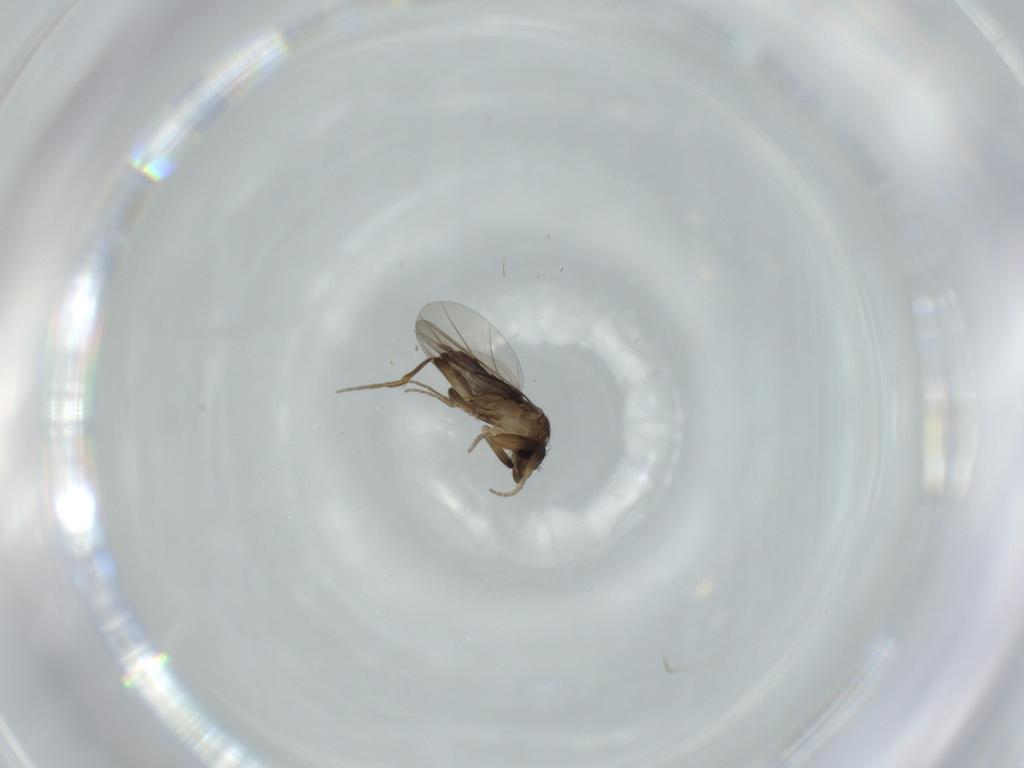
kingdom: Animalia
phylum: Arthropoda
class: Insecta
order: Diptera
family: Phoridae
